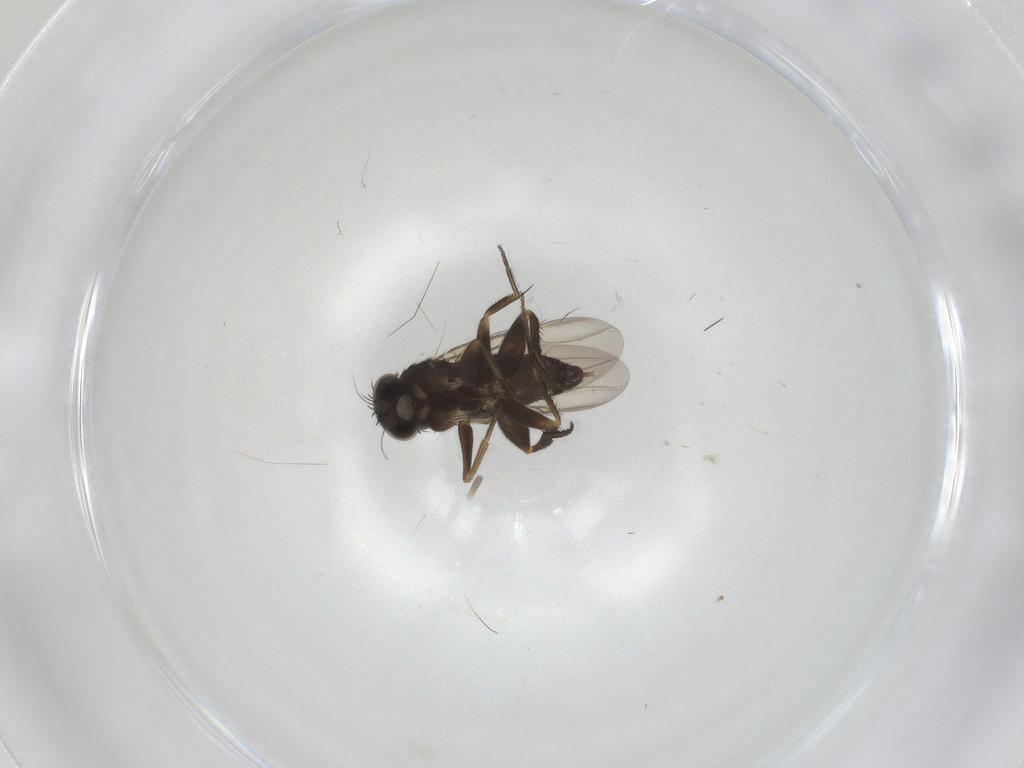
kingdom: Animalia
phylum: Arthropoda
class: Insecta
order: Diptera
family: Phoridae
